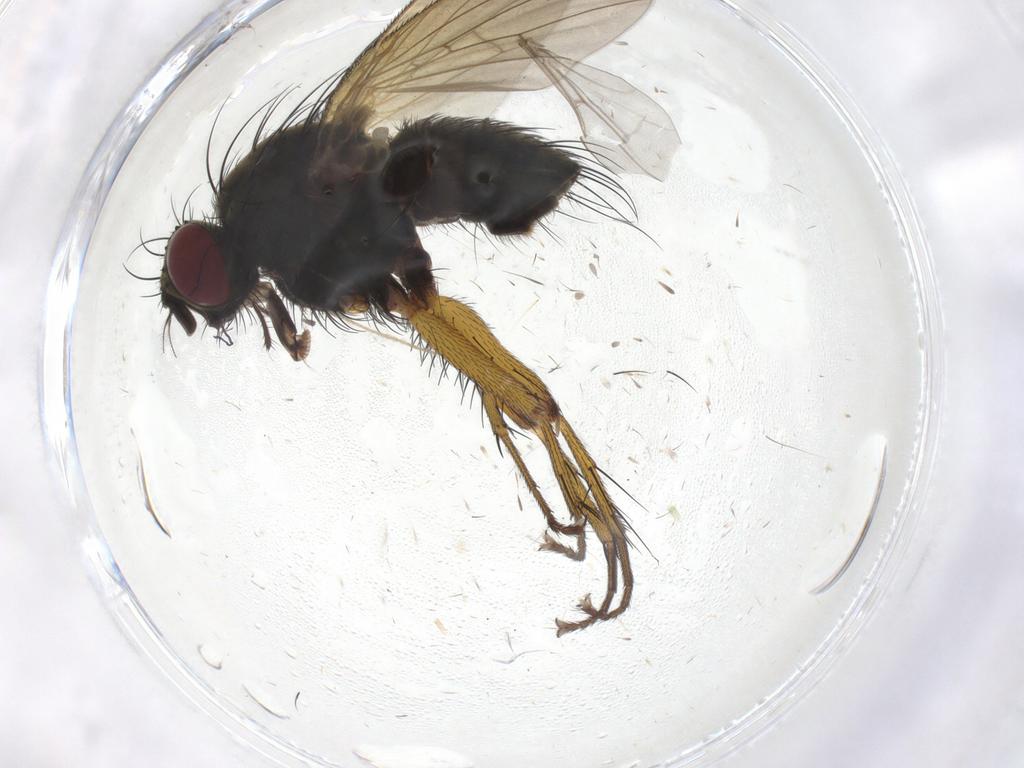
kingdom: Animalia
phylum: Arthropoda
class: Insecta
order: Diptera
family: Muscidae
